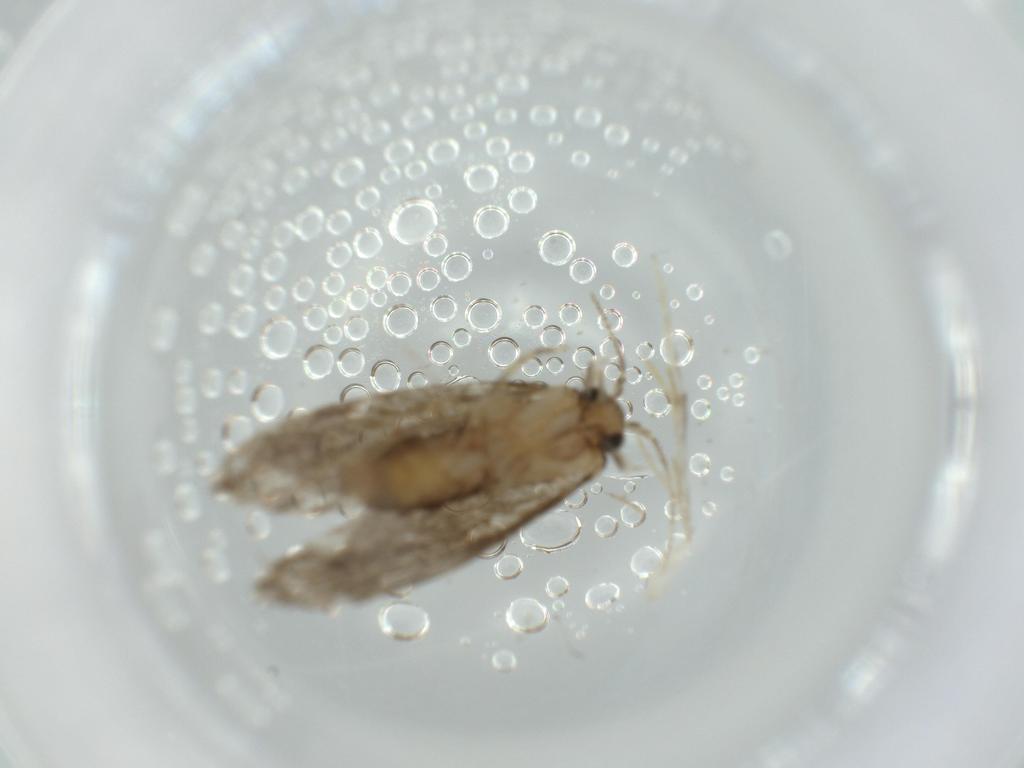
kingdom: Animalia
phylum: Arthropoda
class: Insecta
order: Lepidoptera
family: Tineidae
